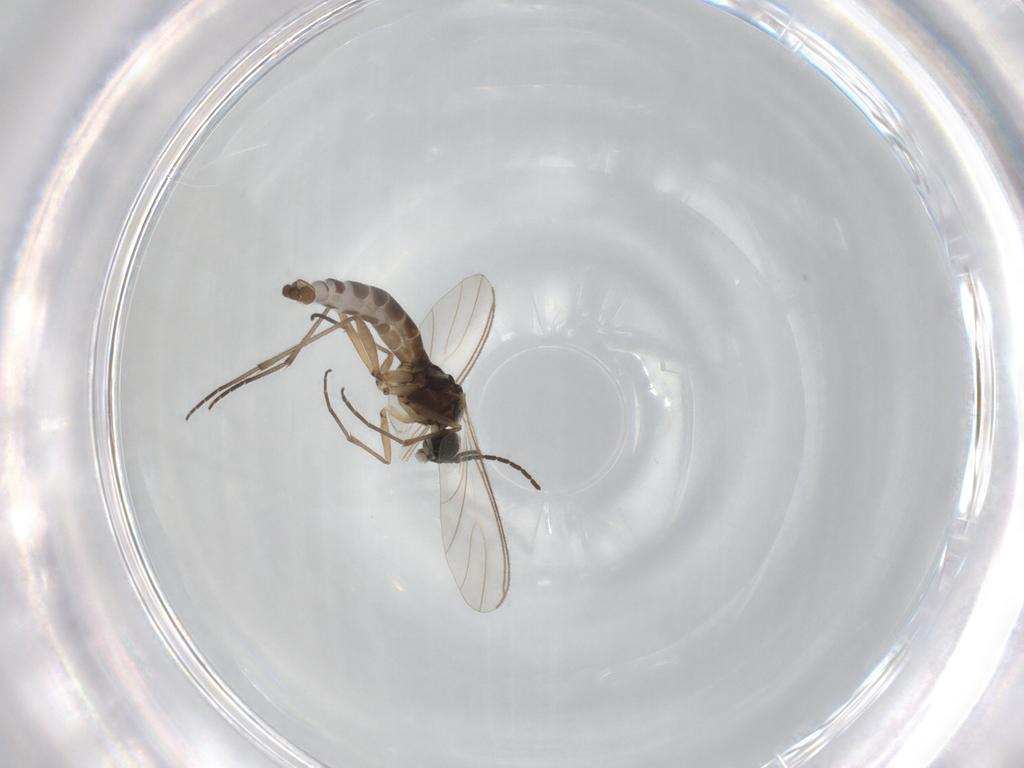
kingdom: Animalia
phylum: Arthropoda
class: Insecta
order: Diptera
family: Sciaridae
